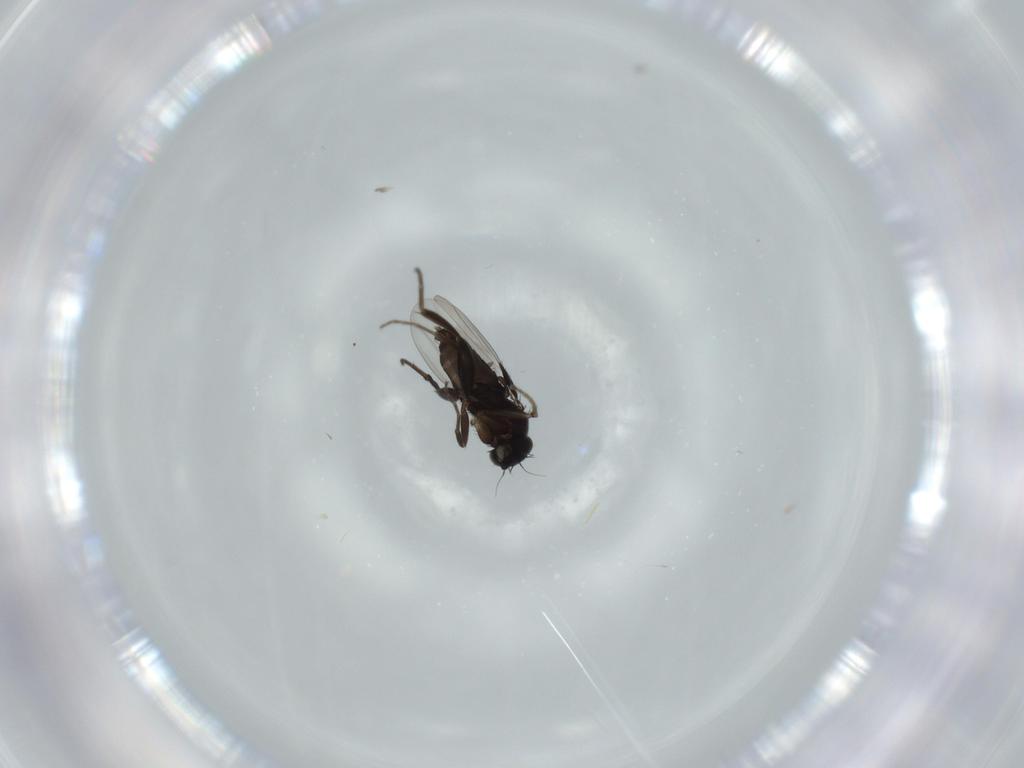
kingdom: Animalia
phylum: Arthropoda
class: Insecta
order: Diptera
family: Phoridae
